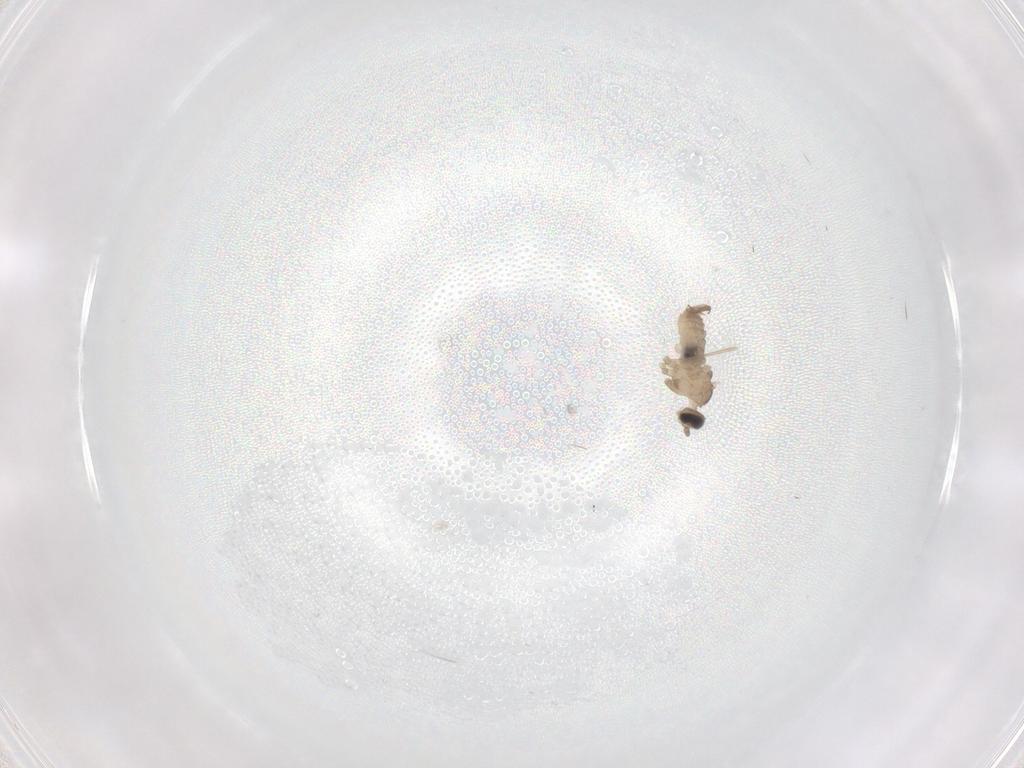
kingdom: Animalia
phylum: Arthropoda
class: Insecta
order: Diptera
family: Cecidomyiidae
